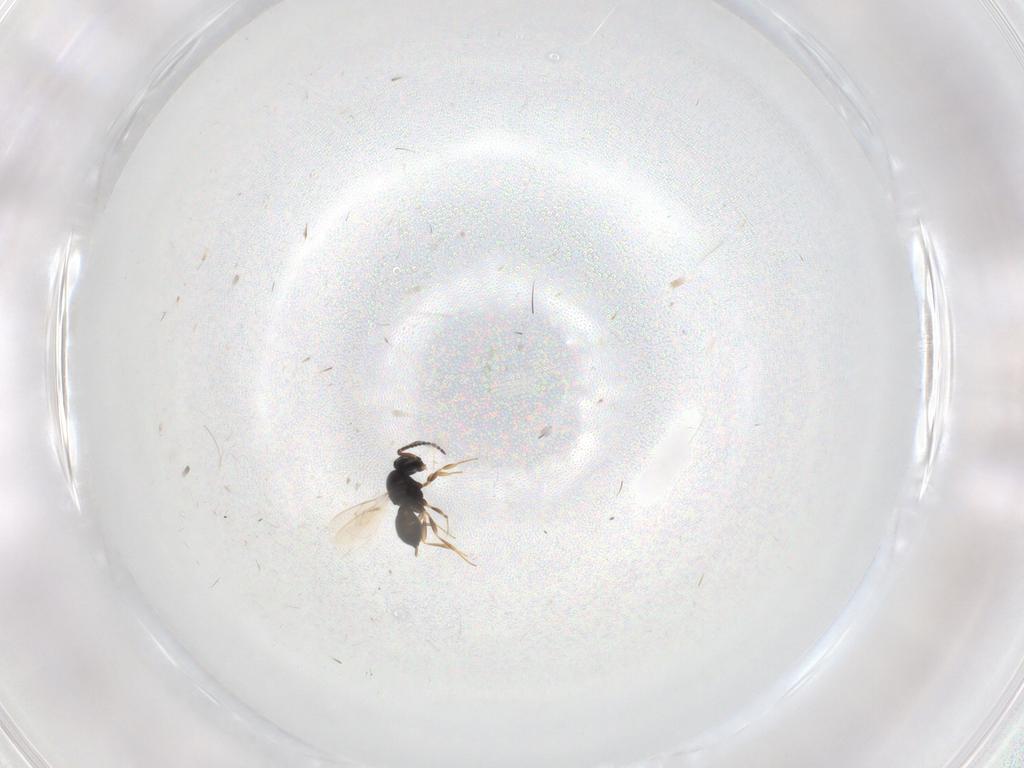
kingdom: Animalia
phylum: Arthropoda
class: Insecta
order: Hymenoptera
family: Scelionidae
